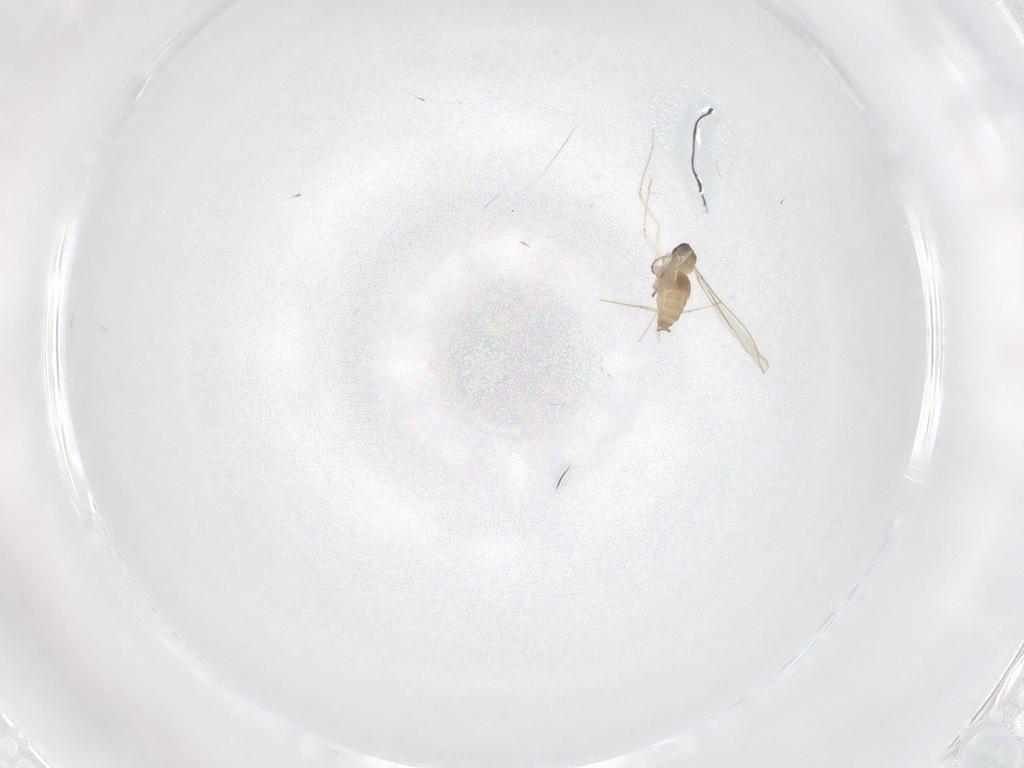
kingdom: Animalia
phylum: Arthropoda
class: Insecta
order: Diptera
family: Cecidomyiidae
